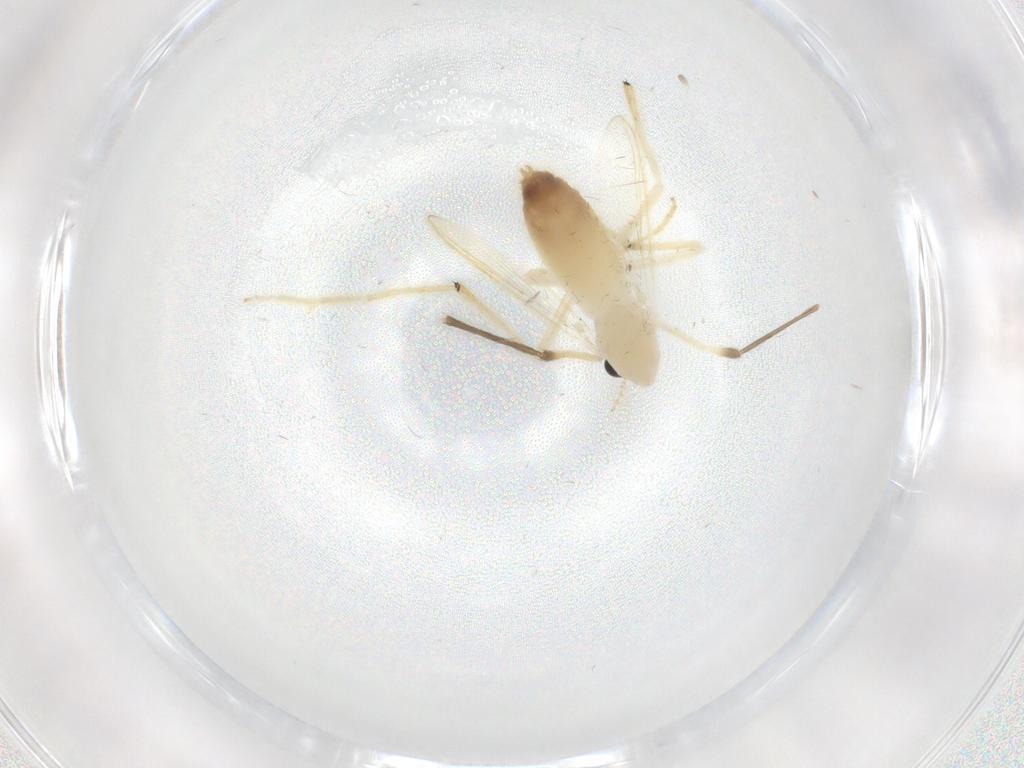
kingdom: Animalia
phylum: Arthropoda
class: Insecta
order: Diptera
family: Chironomidae
